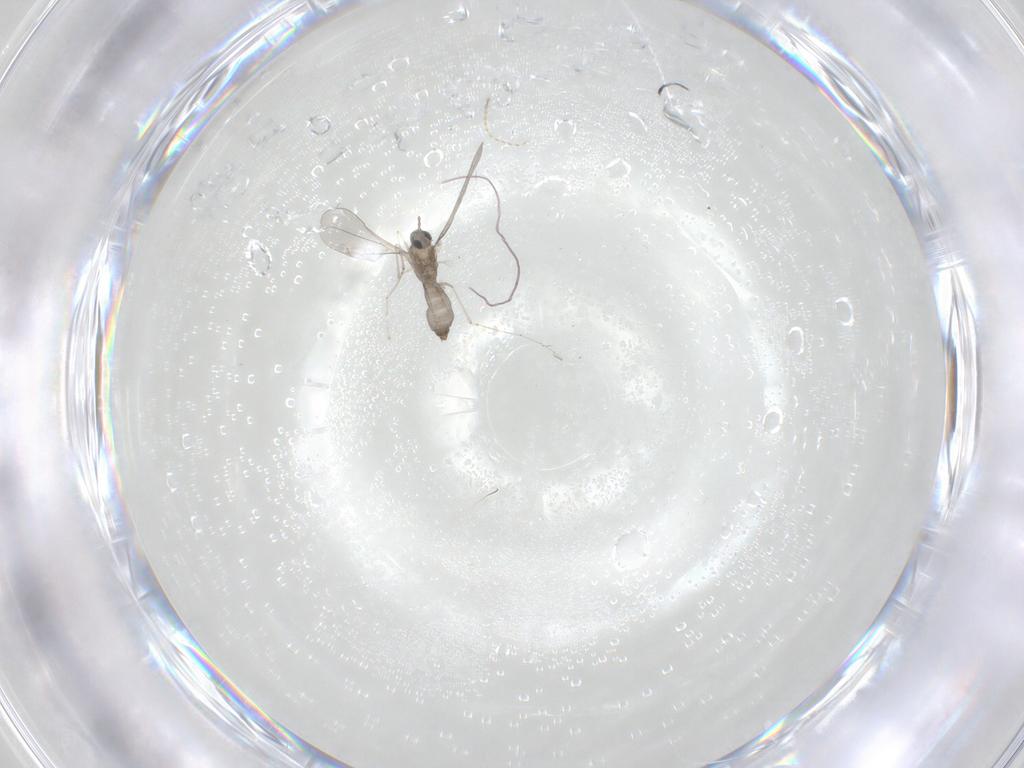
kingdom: Animalia
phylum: Arthropoda
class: Insecta
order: Diptera
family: Cecidomyiidae
